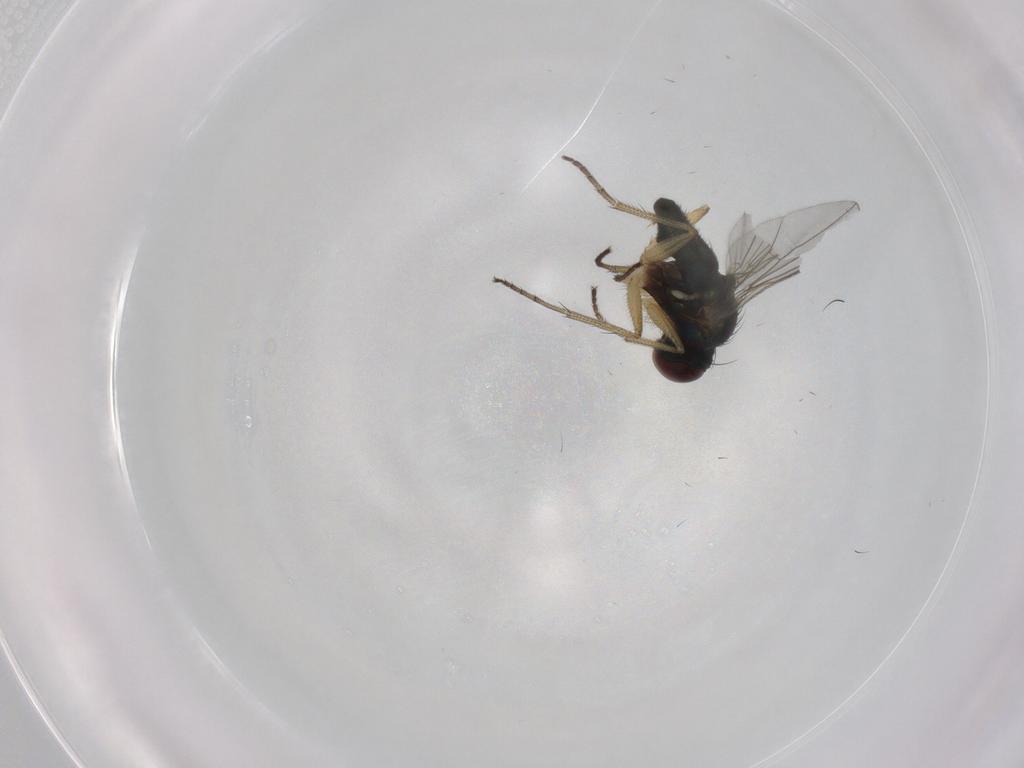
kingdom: Animalia
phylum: Arthropoda
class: Insecta
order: Diptera
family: Dolichopodidae
